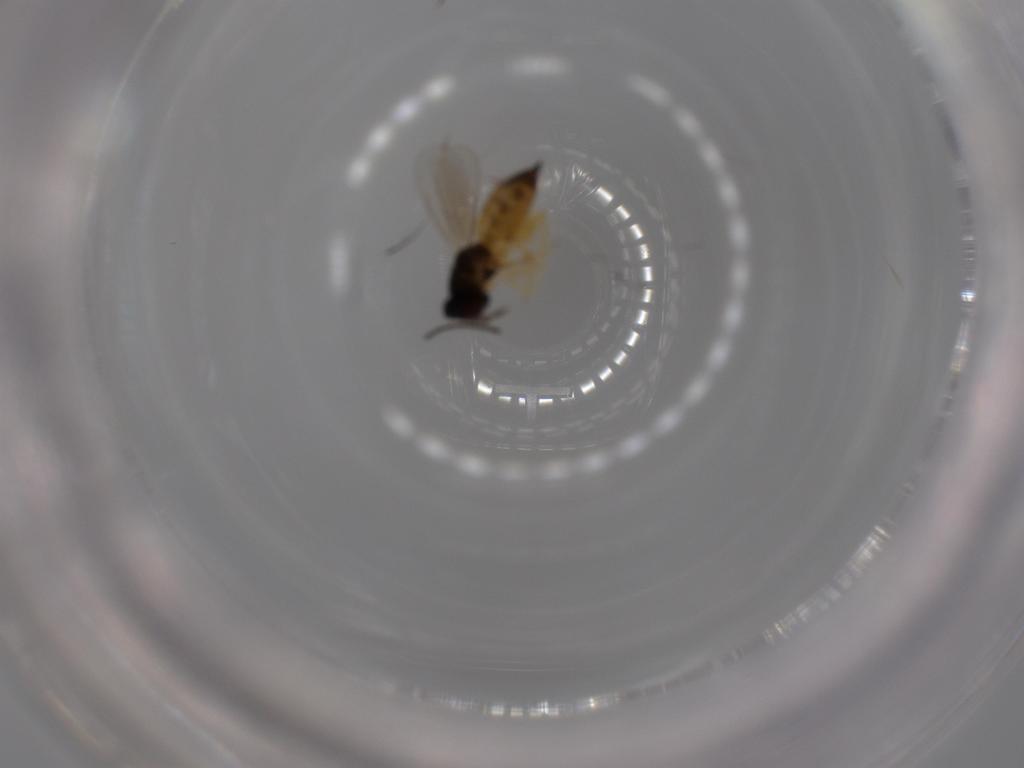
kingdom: Animalia
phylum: Arthropoda
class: Insecta
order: Hymenoptera
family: Eulophidae
